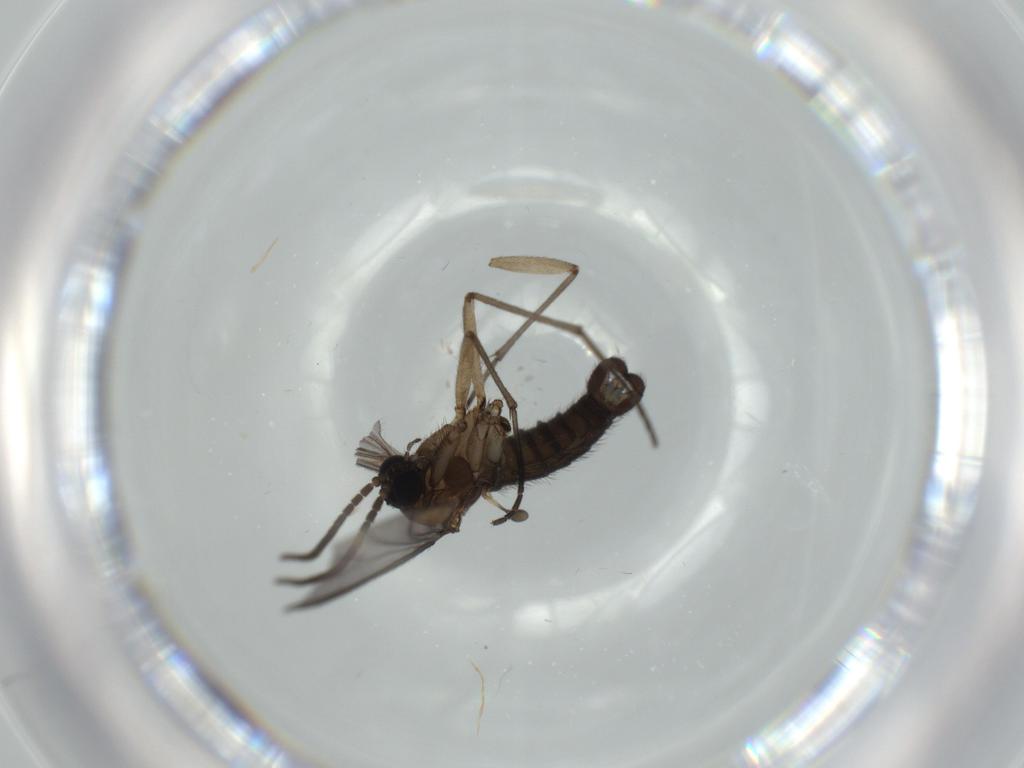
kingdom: Animalia
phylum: Arthropoda
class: Insecta
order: Diptera
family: Sciaridae
